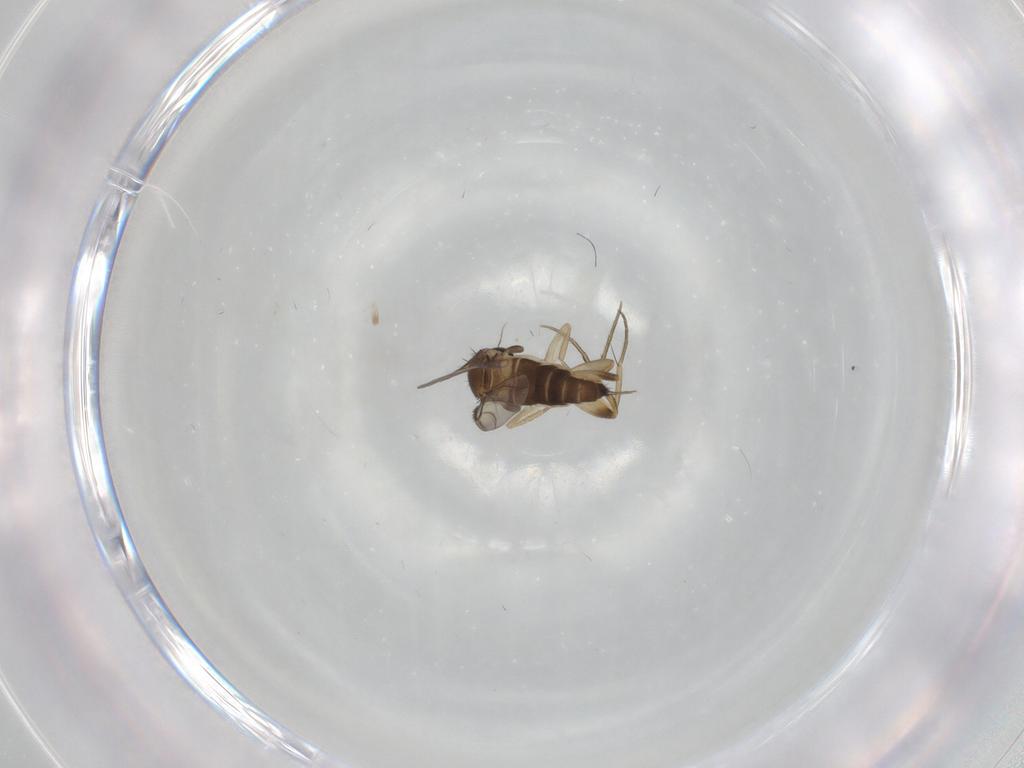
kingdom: Animalia
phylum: Arthropoda
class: Insecta
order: Diptera
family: Phoridae
